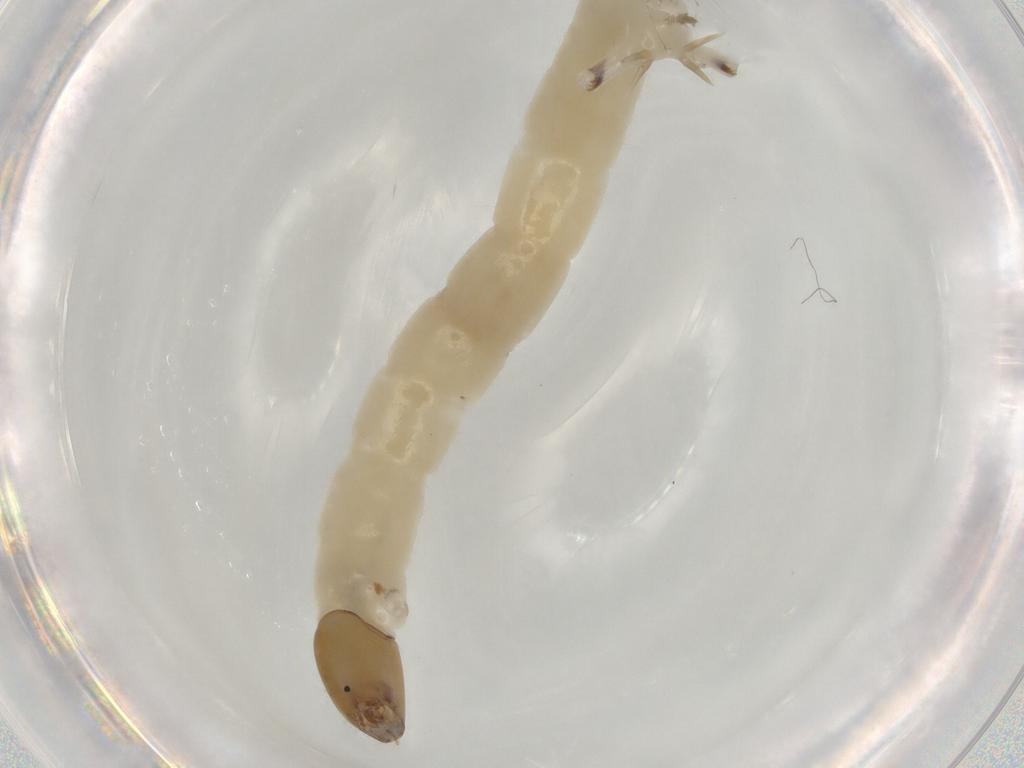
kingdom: Animalia
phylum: Arthropoda
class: Insecta
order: Diptera
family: Chironomidae
